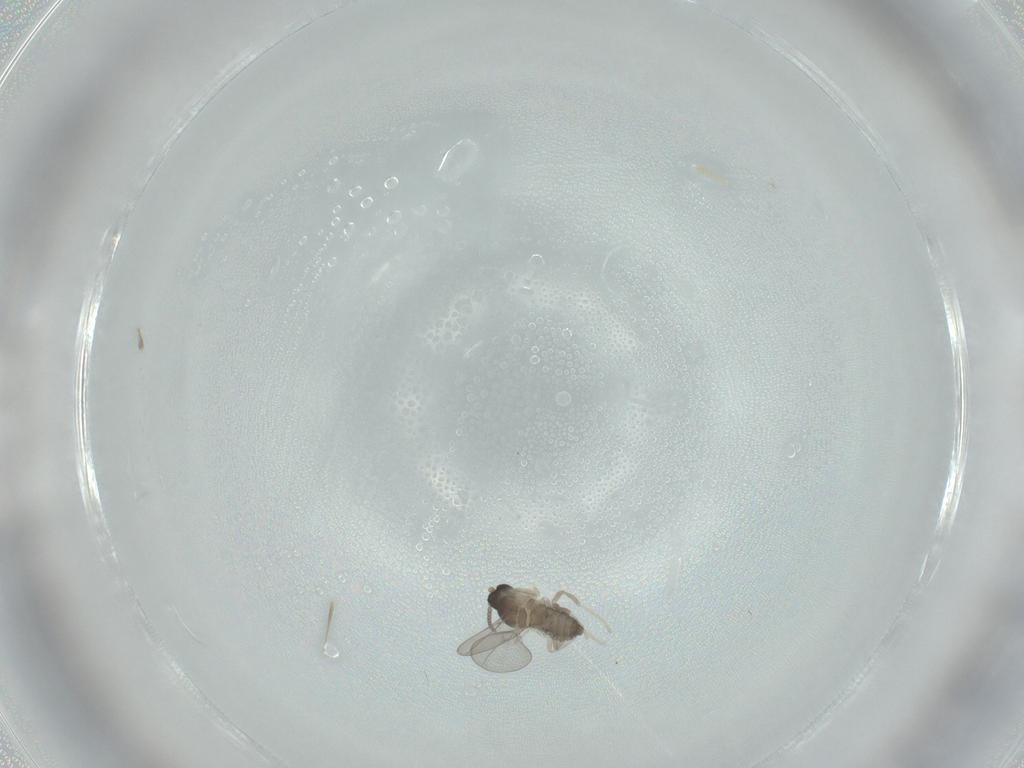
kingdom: Animalia
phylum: Arthropoda
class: Insecta
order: Diptera
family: Cecidomyiidae
